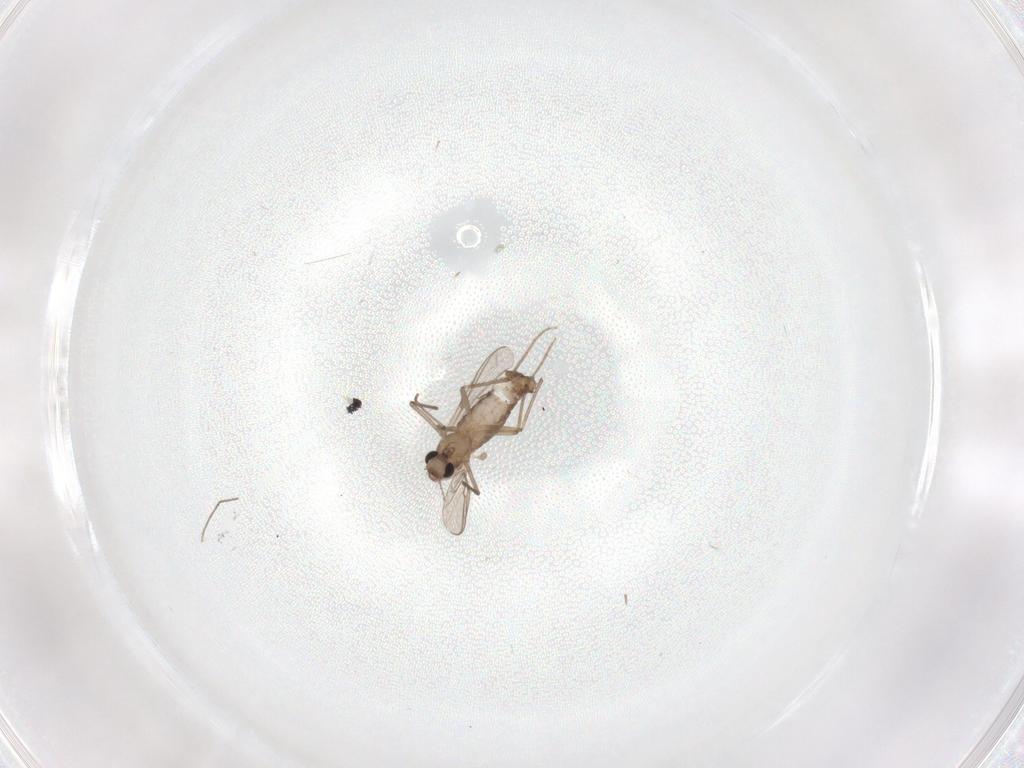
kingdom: Animalia
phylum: Arthropoda
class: Insecta
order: Diptera
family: Chironomidae
